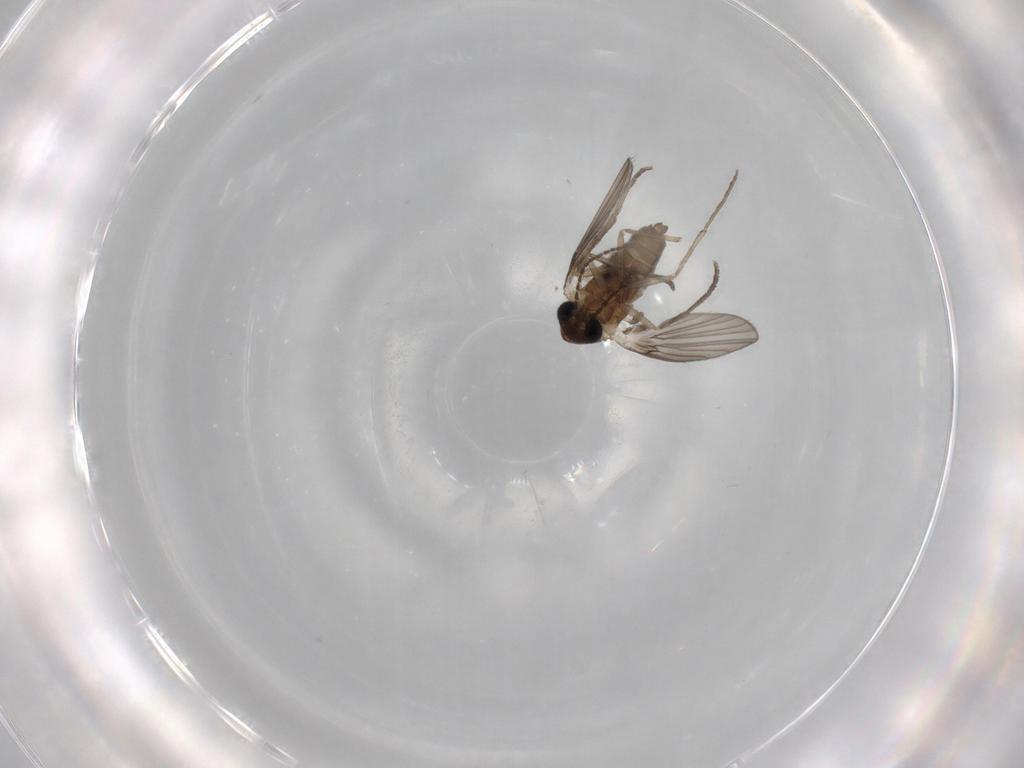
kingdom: Animalia
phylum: Arthropoda
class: Insecta
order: Diptera
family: Psychodidae
